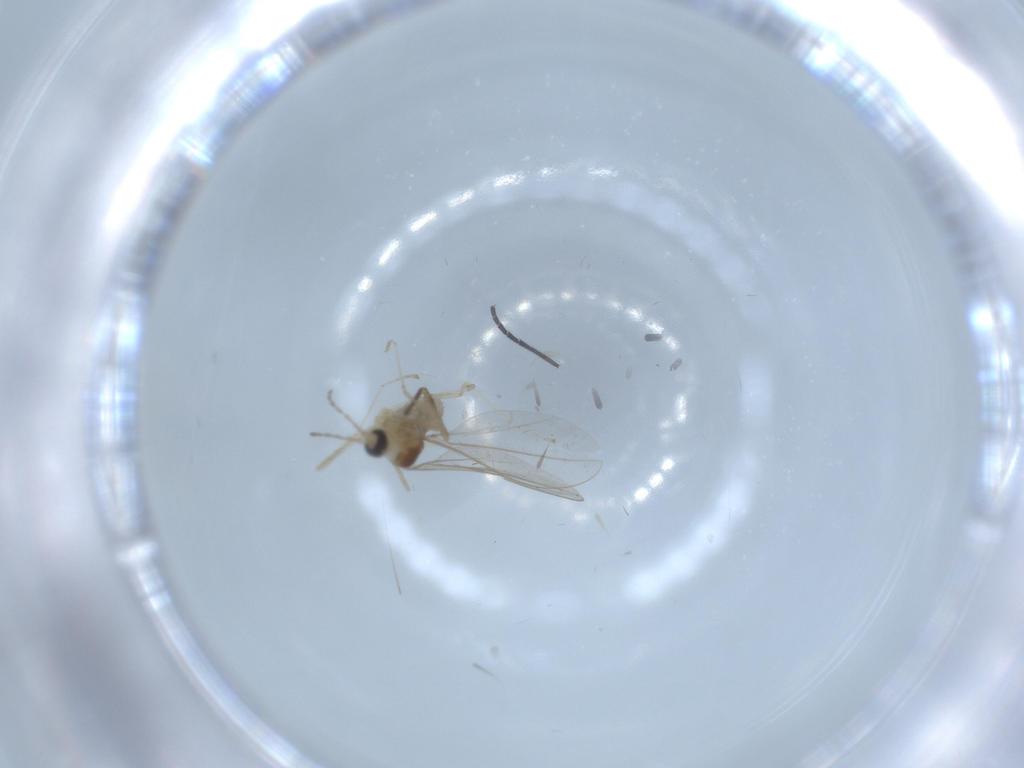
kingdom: Animalia
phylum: Arthropoda
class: Insecta
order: Diptera
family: Cecidomyiidae
